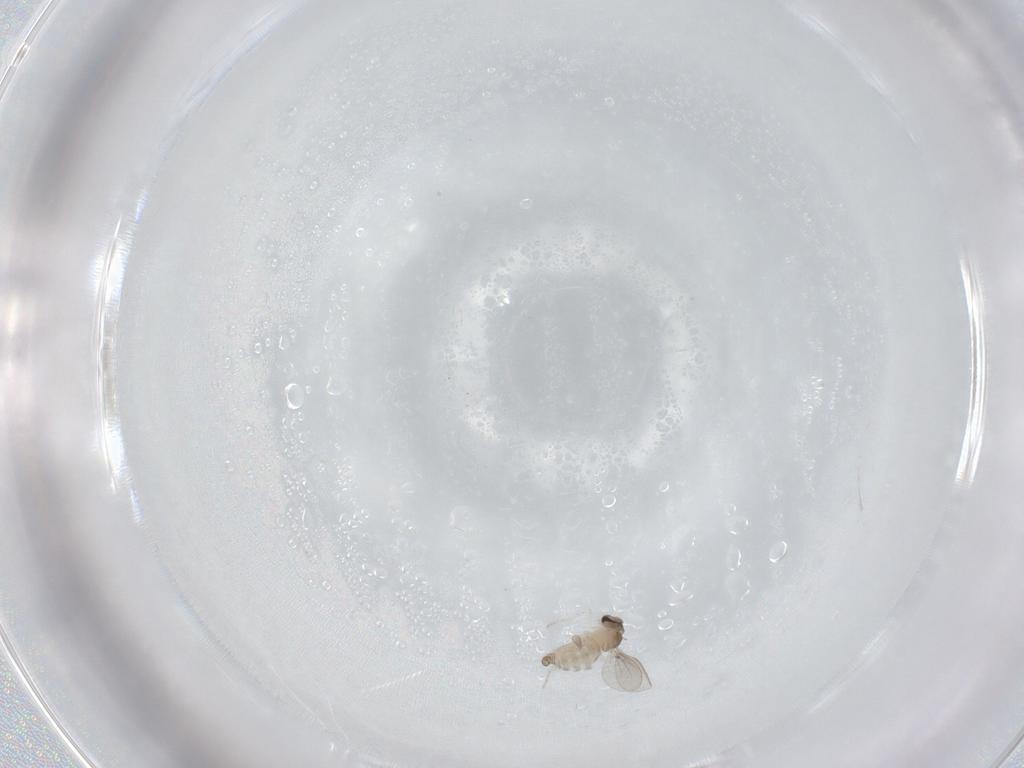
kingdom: Animalia
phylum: Arthropoda
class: Insecta
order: Diptera
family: Cecidomyiidae
